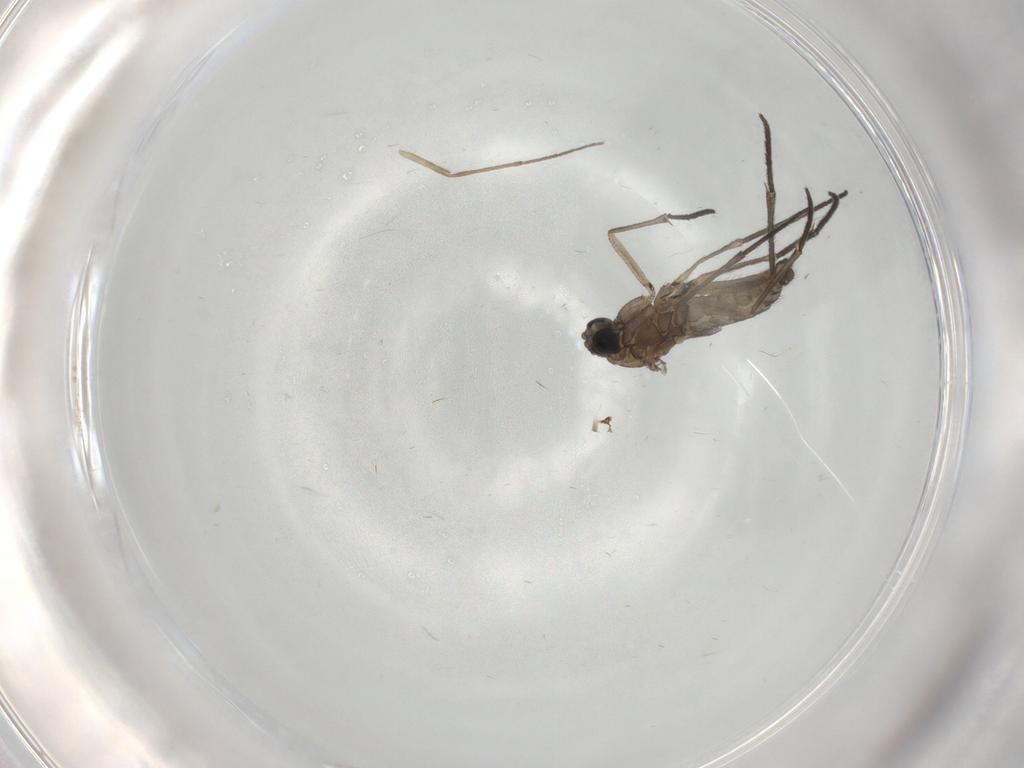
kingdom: Animalia
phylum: Arthropoda
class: Insecta
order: Diptera
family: Sciaridae
